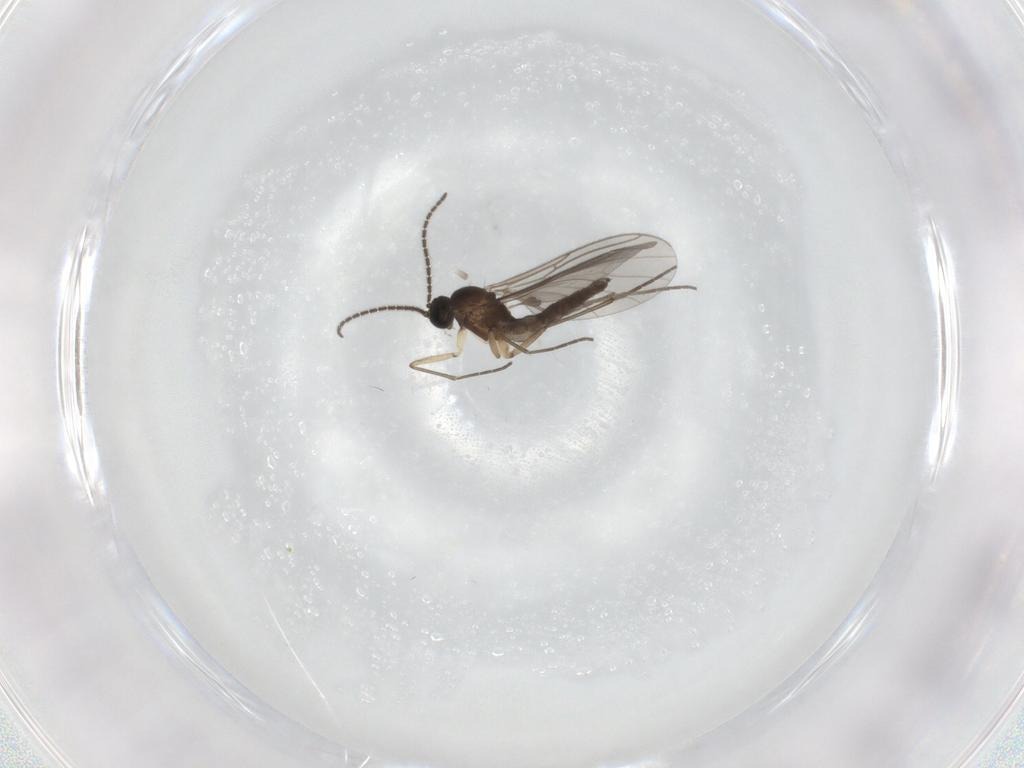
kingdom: Animalia
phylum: Arthropoda
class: Insecta
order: Diptera
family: Sciaridae
